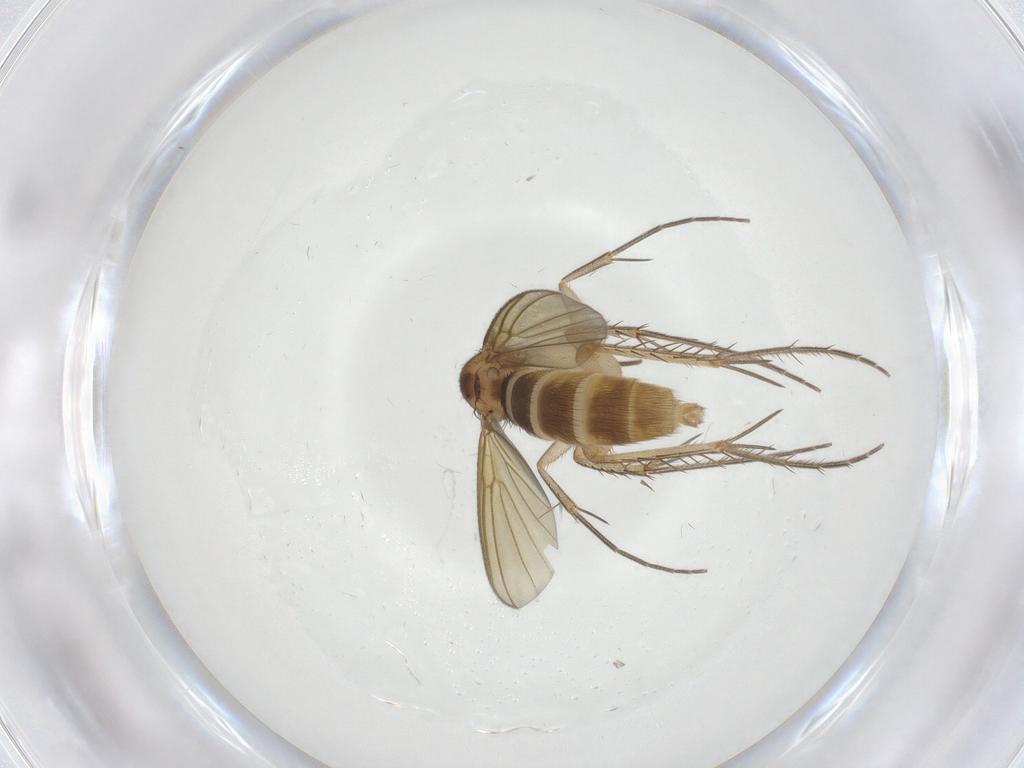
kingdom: Animalia
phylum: Arthropoda
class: Insecta
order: Diptera
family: Mycetophilidae
